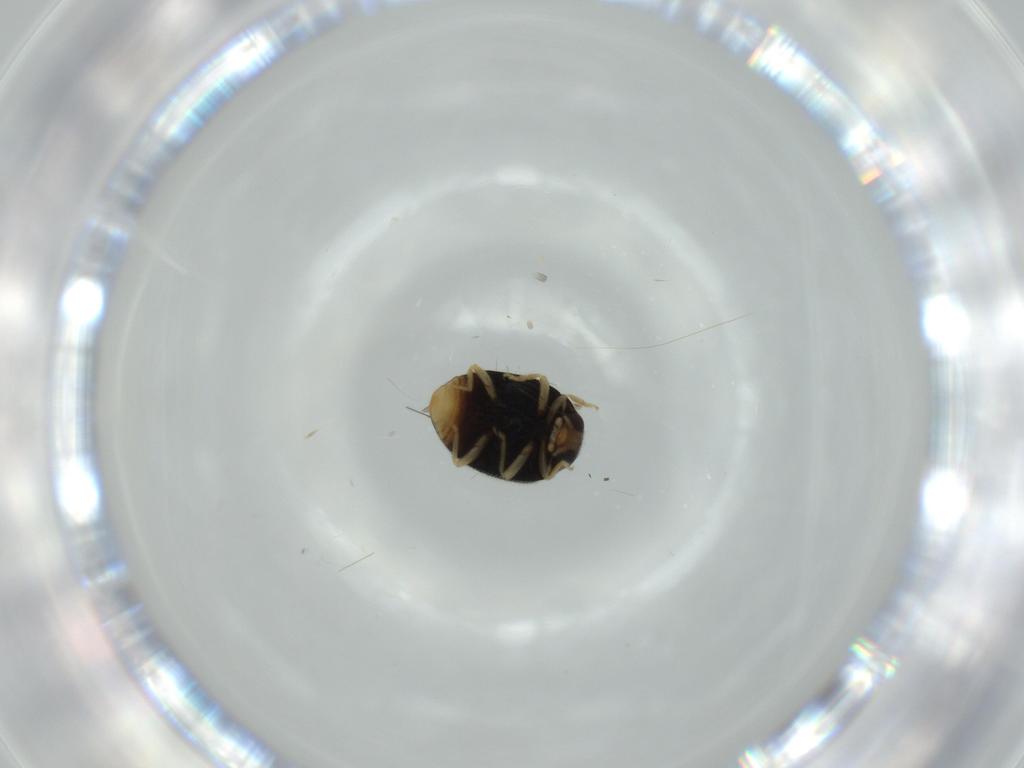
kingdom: Animalia
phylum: Arthropoda
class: Insecta
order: Coleoptera
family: Coccinellidae
